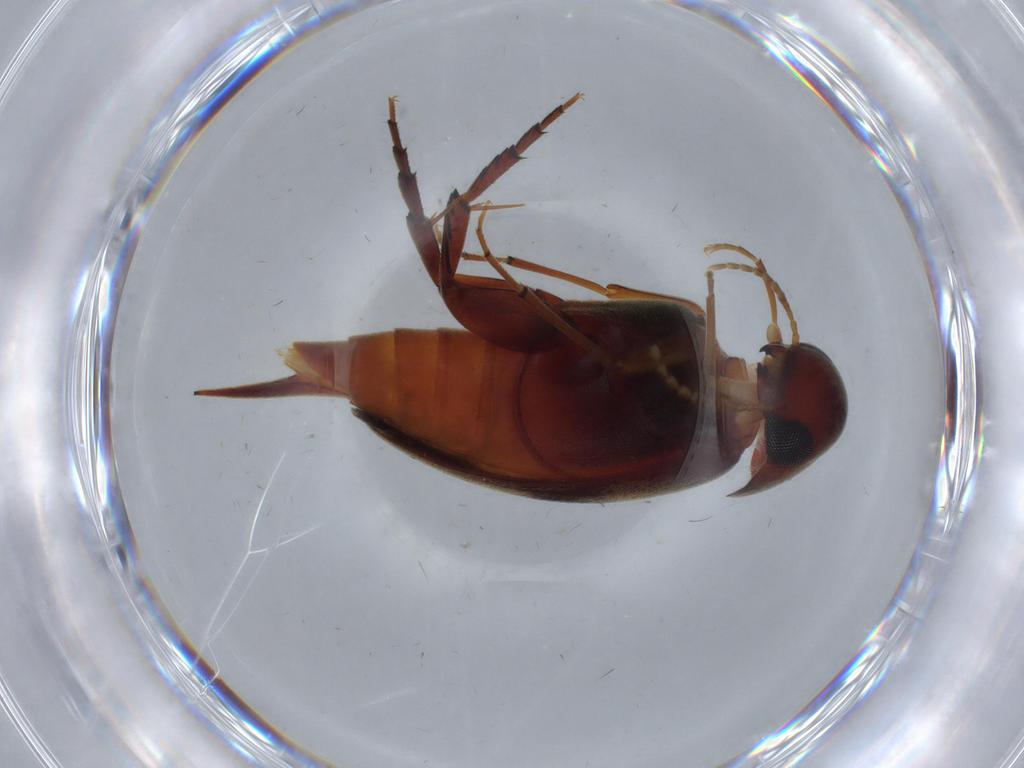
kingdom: Animalia
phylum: Arthropoda
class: Insecta
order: Coleoptera
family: Mordellidae
